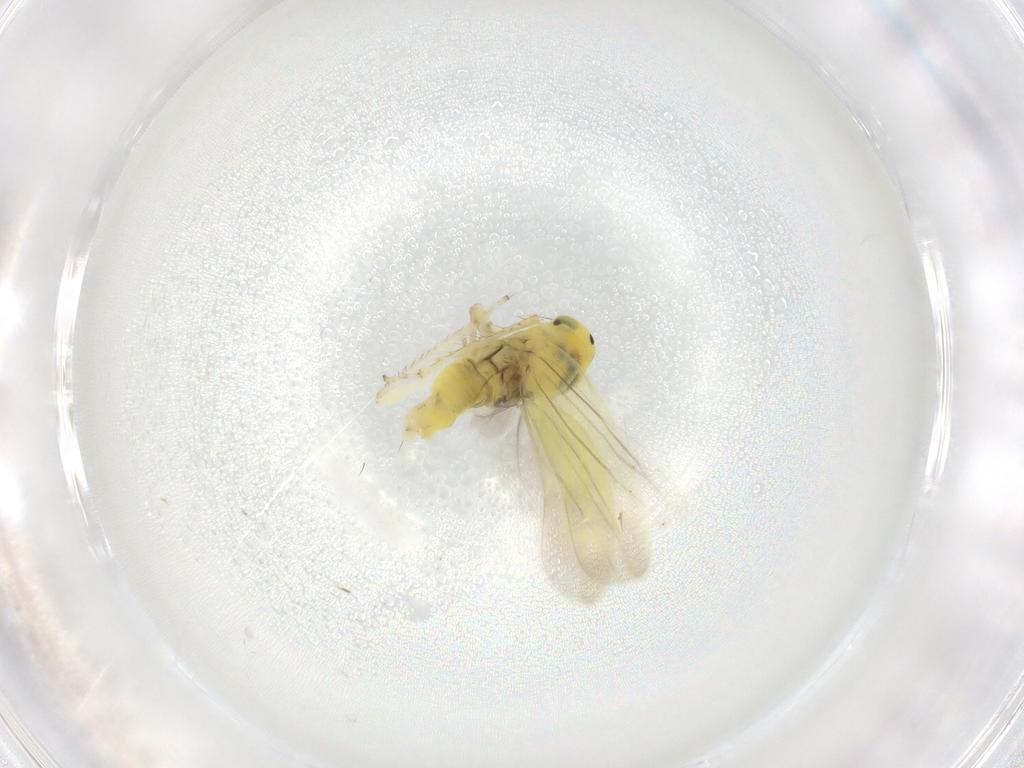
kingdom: Animalia
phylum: Arthropoda
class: Insecta
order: Hemiptera
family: Cicadellidae
